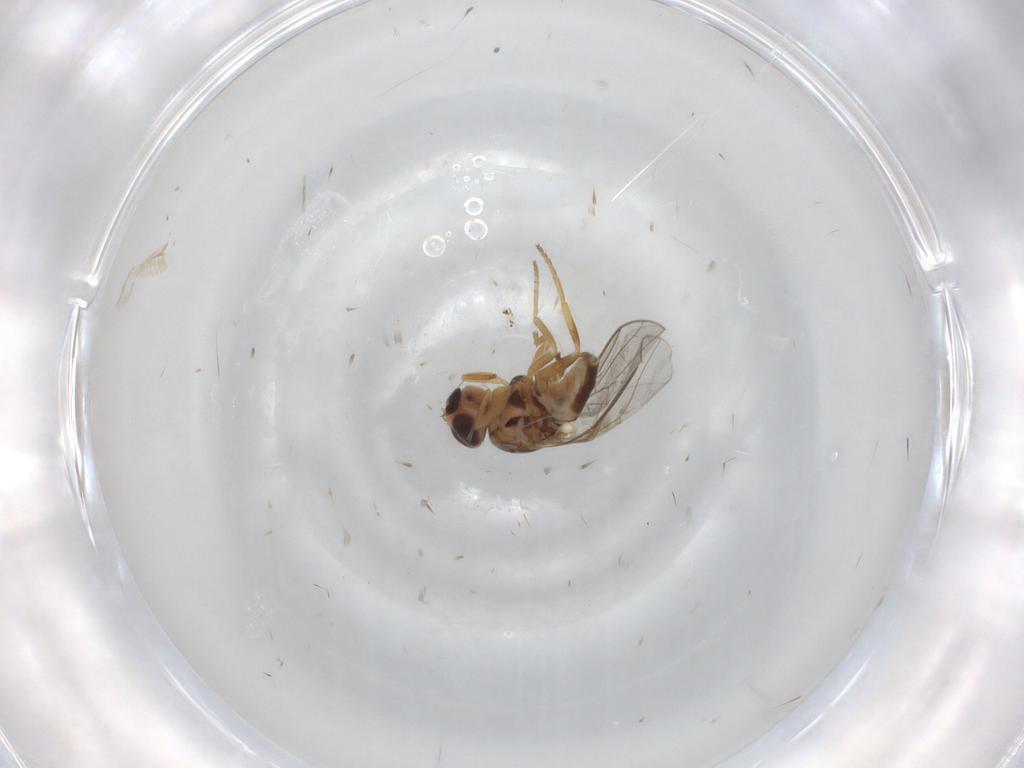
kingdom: Animalia
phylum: Arthropoda
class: Insecta
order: Diptera
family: Chloropidae
